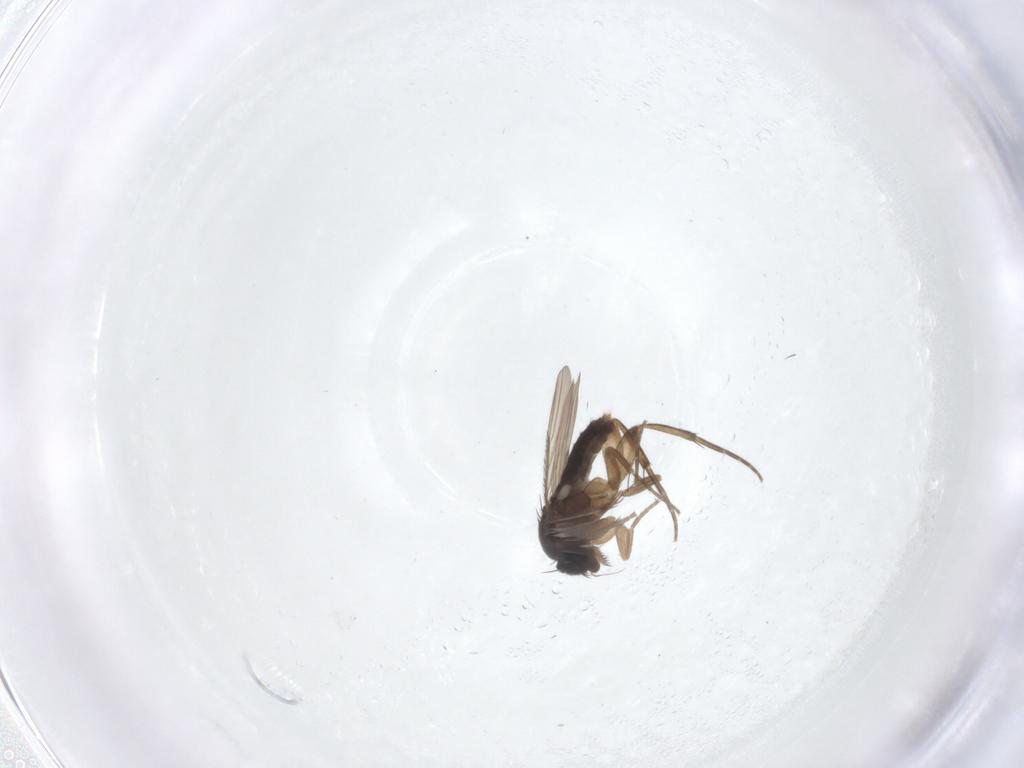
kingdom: Animalia
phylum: Arthropoda
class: Insecta
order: Diptera
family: Phoridae
